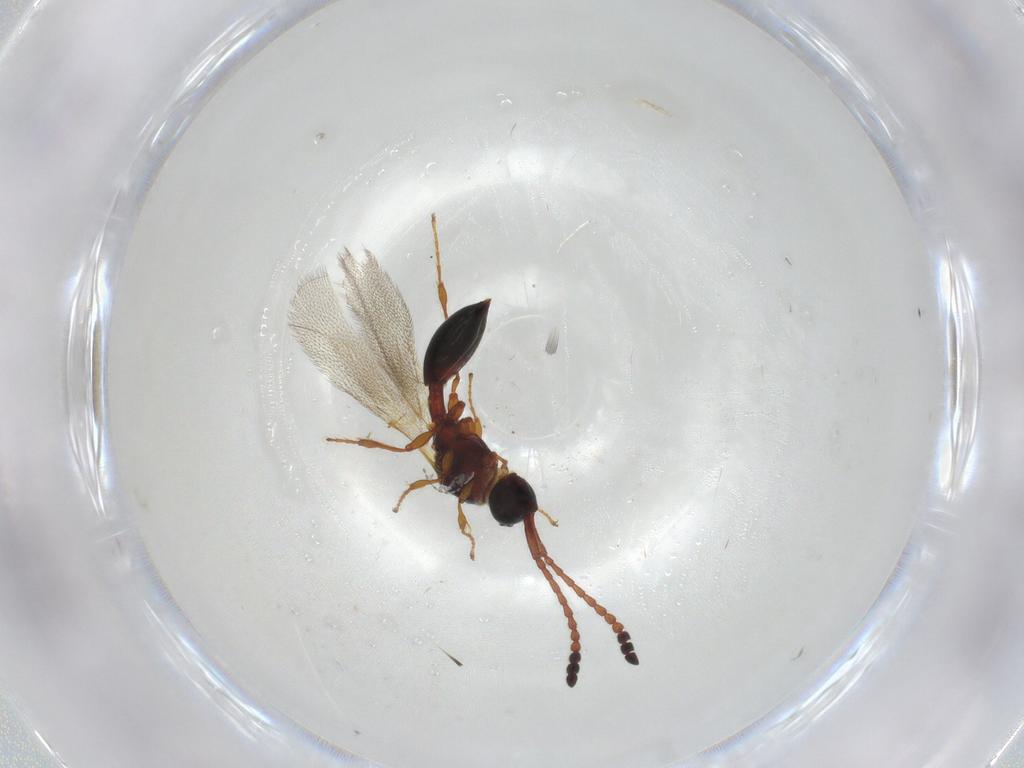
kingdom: Animalia
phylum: Arthropoda
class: Insecta
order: Hymenoptera
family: Diapriidae
